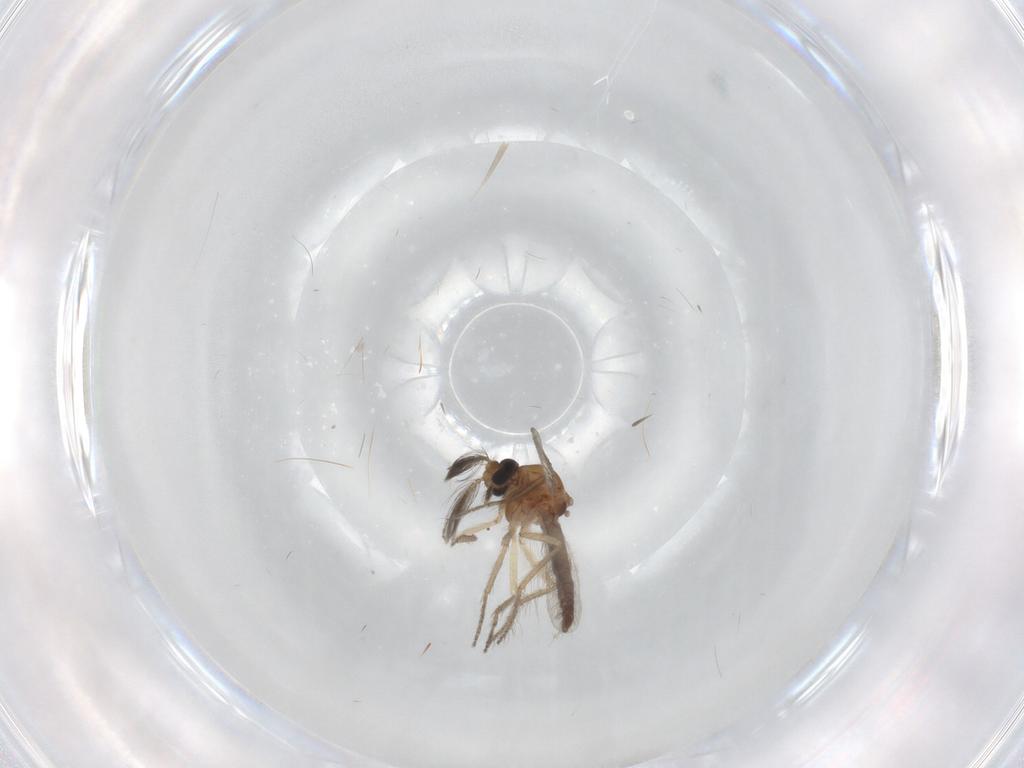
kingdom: Animalia
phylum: Arthropoda
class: Insecta
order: Diptera
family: Ceratopogonidae
